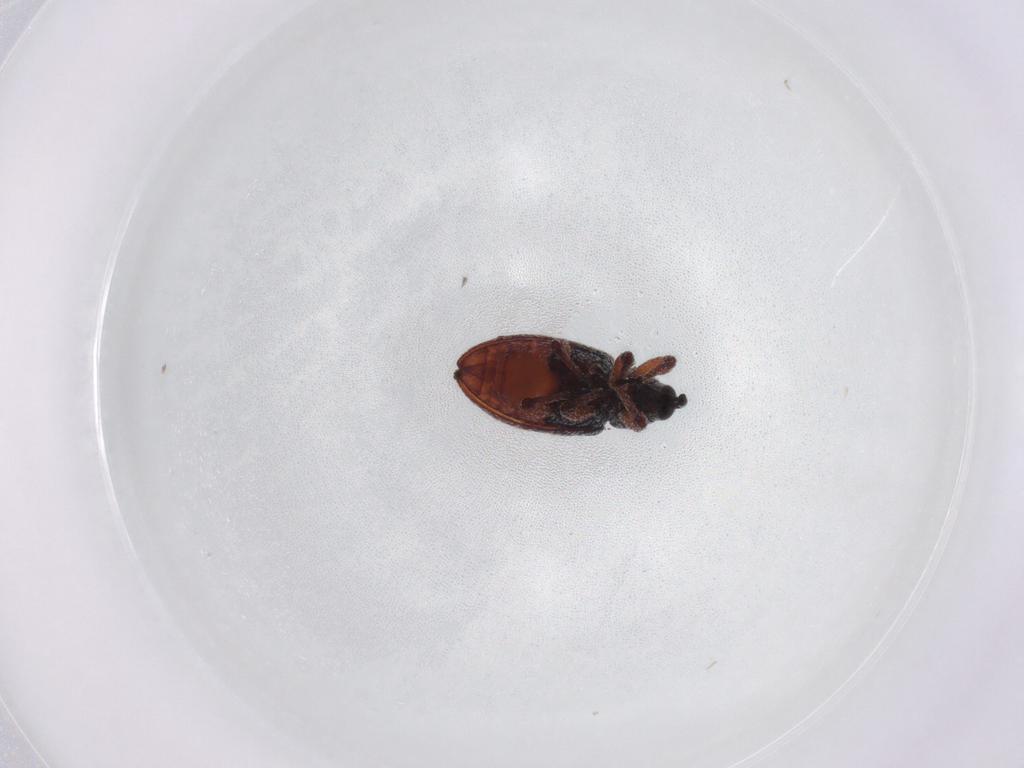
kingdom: Animalia
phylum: Arthropoda
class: Insecta
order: Coleoptera
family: Curculionidae
